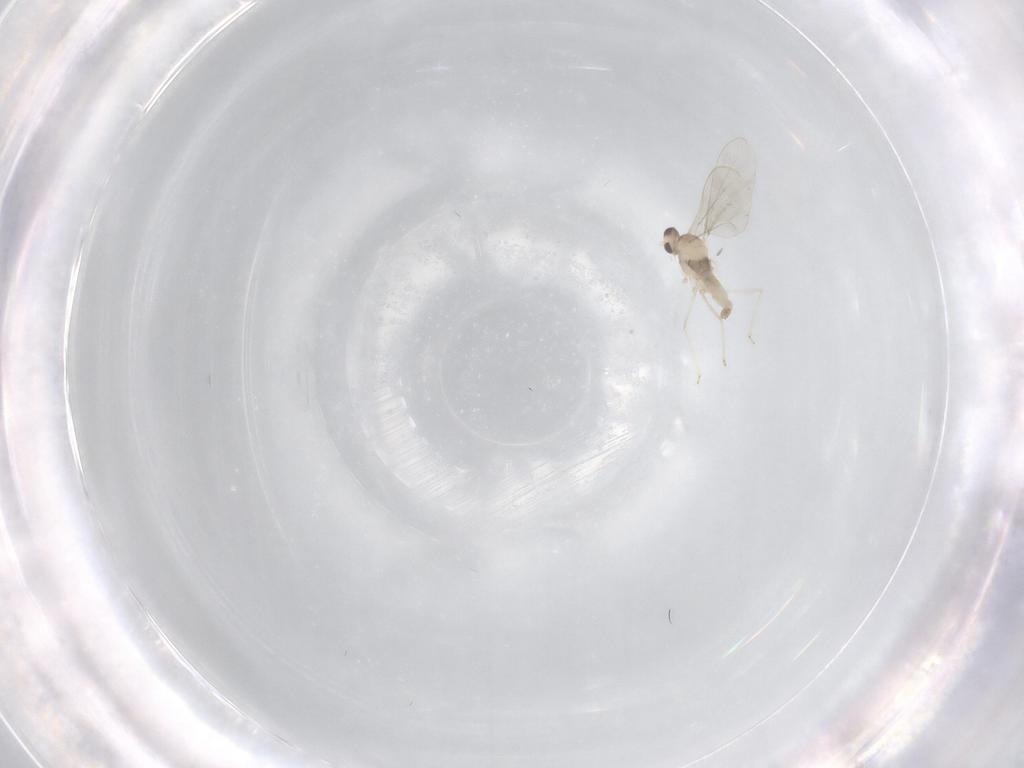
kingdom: Animalia
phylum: Arthropoda
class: Insecta
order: Diptera
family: Cecidomyiidae
